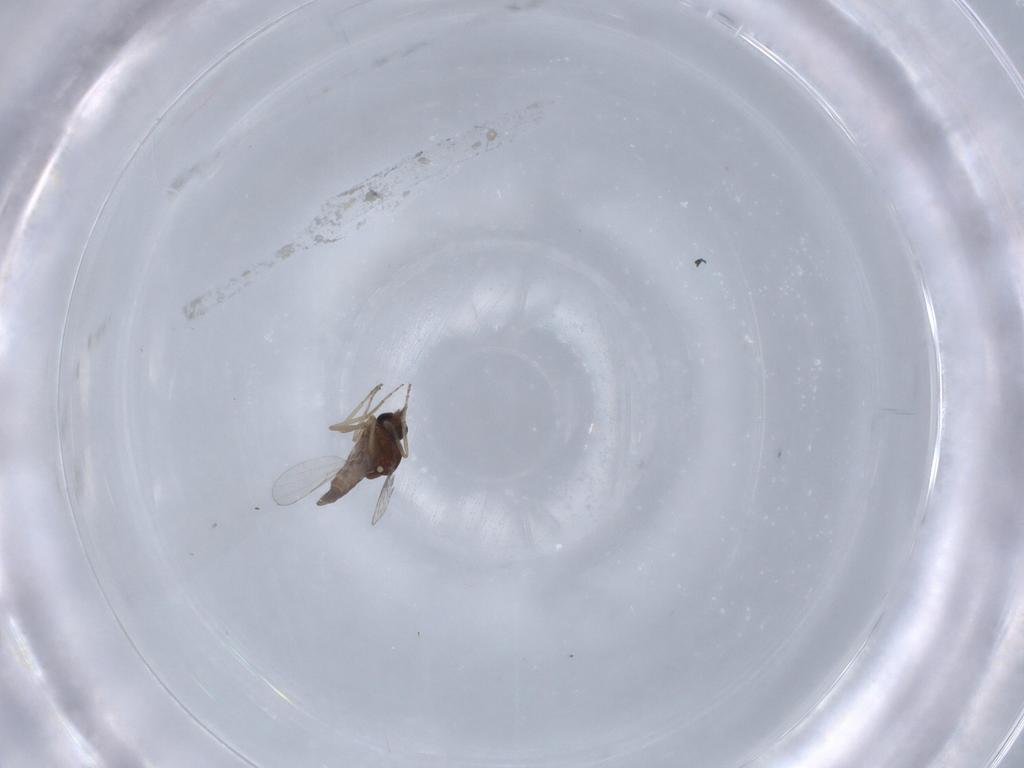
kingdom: Animalia
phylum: Arthropoda
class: Insecta
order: Diptera
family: Ceratopogonidae
